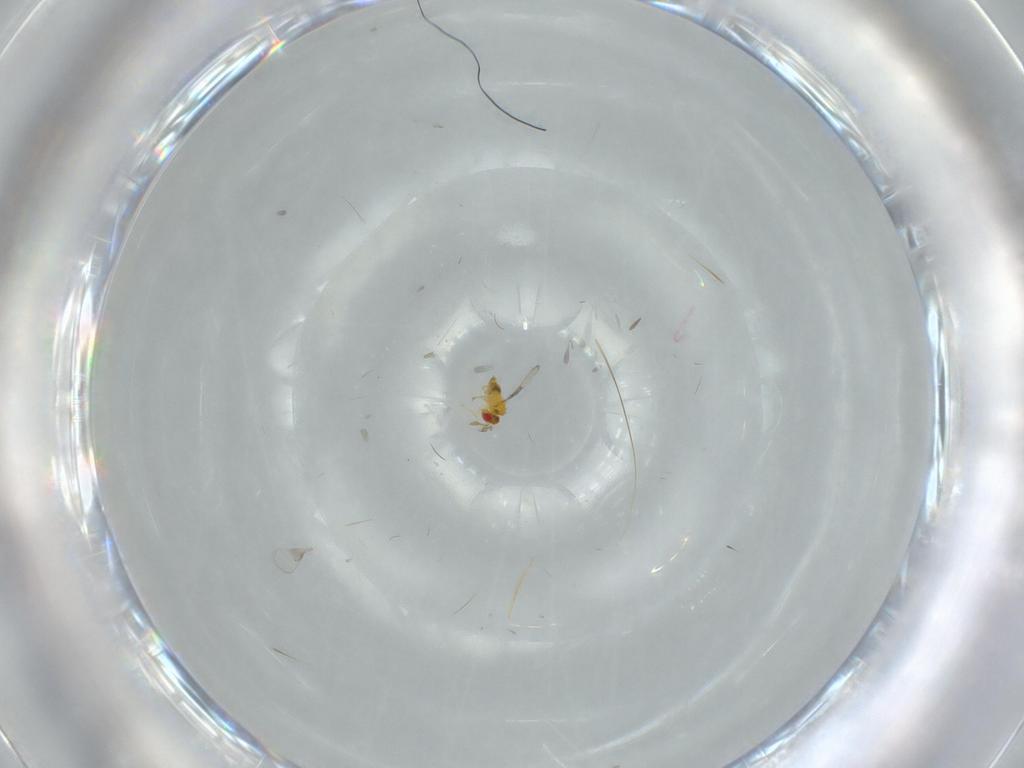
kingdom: Animalia
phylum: Arthropoda
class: Insecta
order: Hymenoptera
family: Trichogrammatidae
